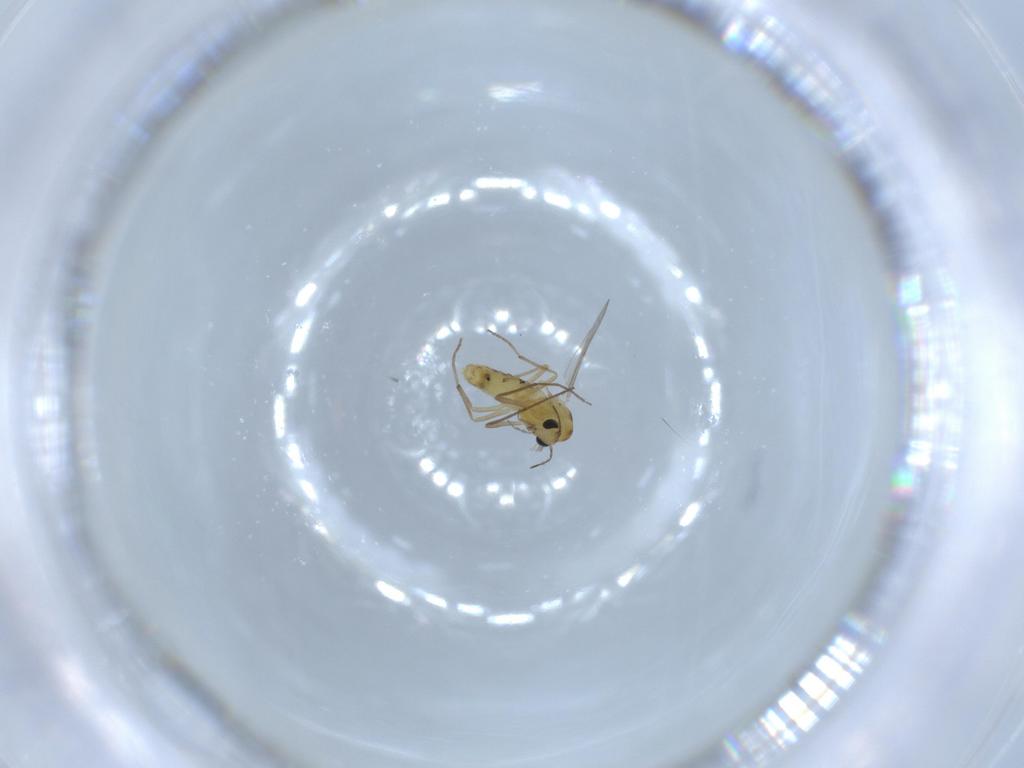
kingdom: Animalia
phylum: Arthropoda
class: Insecta
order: Diptera
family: Chironomidae
